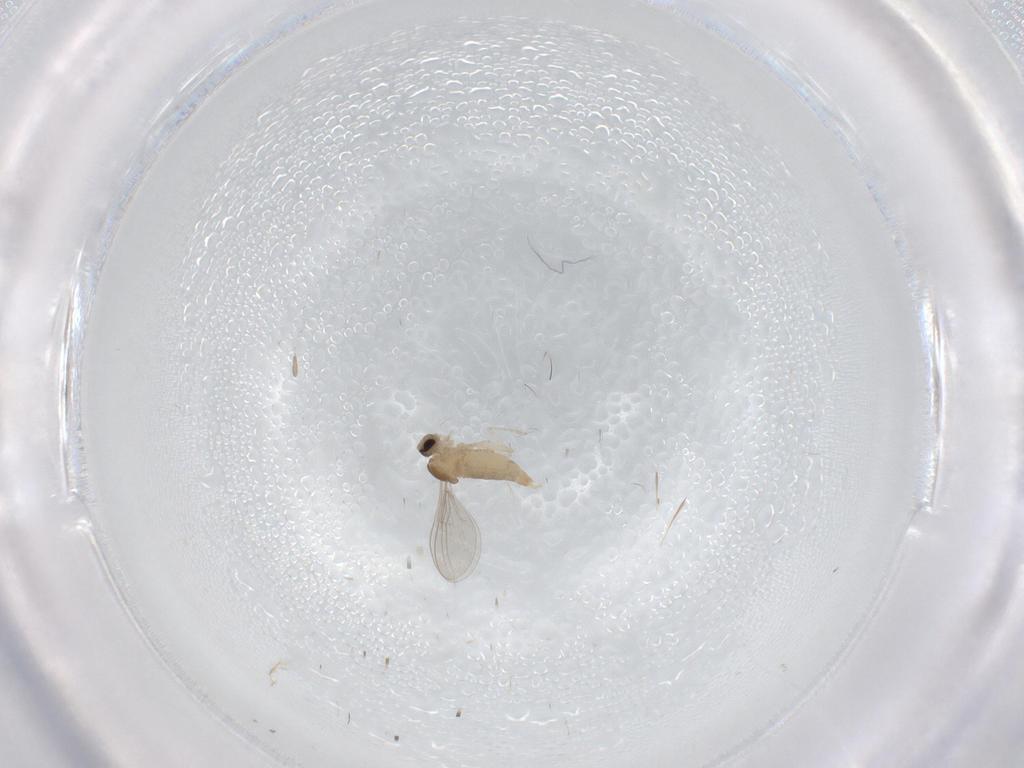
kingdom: Animalia
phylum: Arthropoda
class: Insecta
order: Diptera
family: Cecidomyiidae
